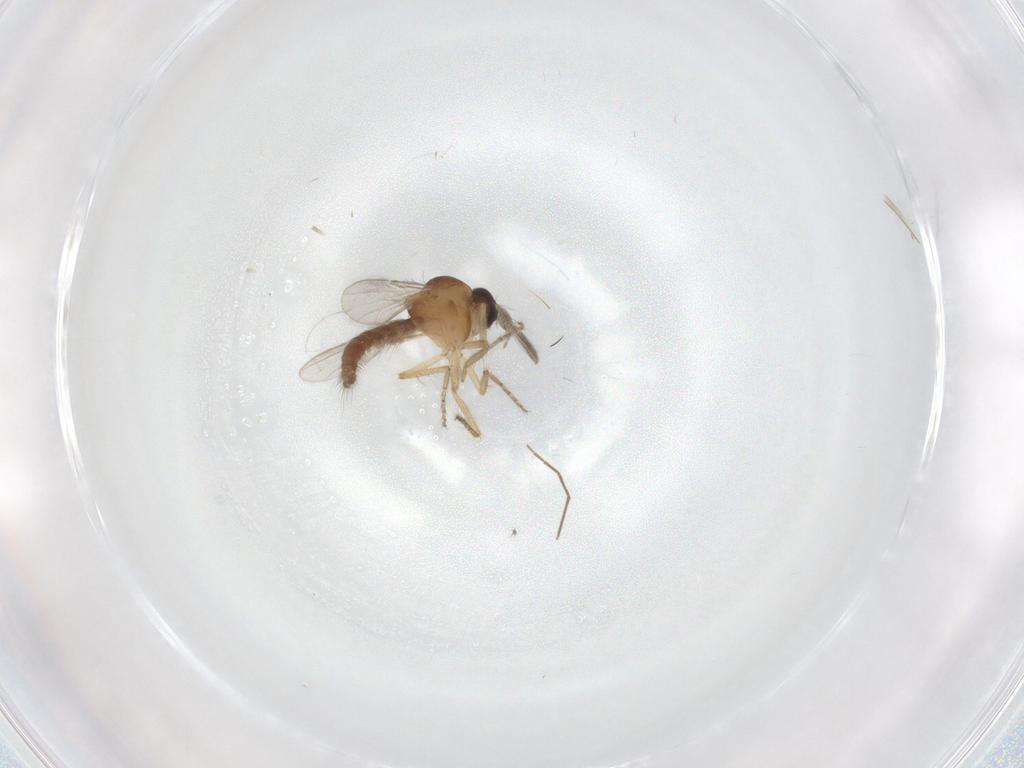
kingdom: Animalia
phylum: Arthropoda
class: Insecta
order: Diptera
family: Ceratopogonidae
